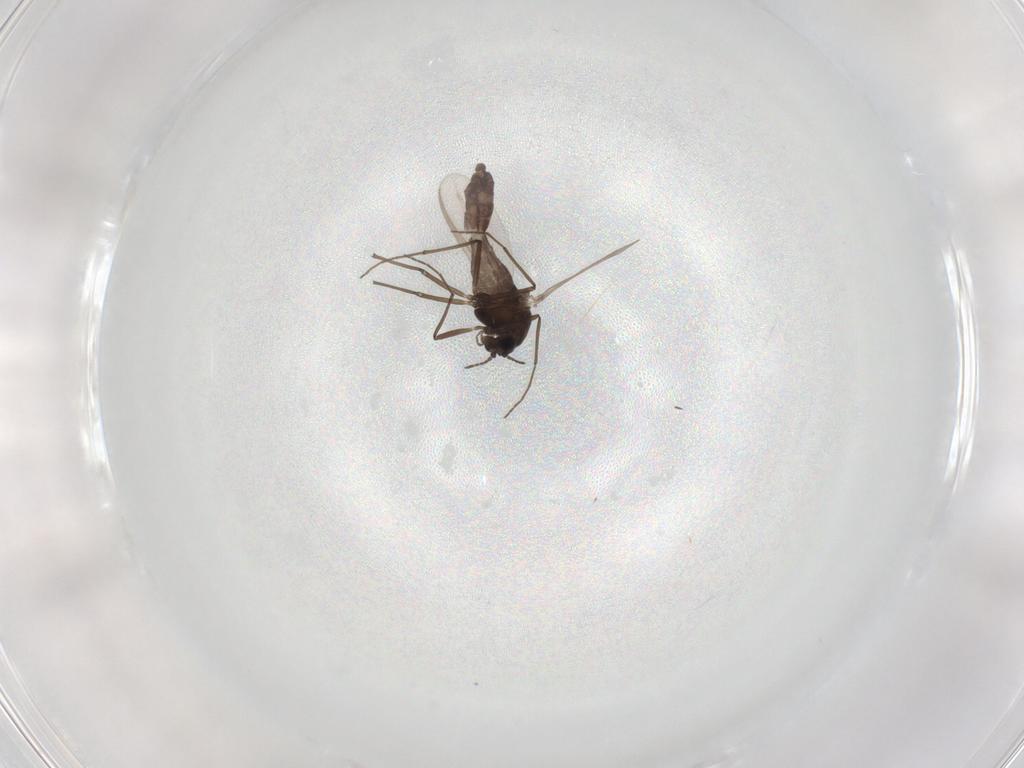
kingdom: Animalia
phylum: Arthropoda
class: Insecta
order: Diptera
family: Chironomidae
